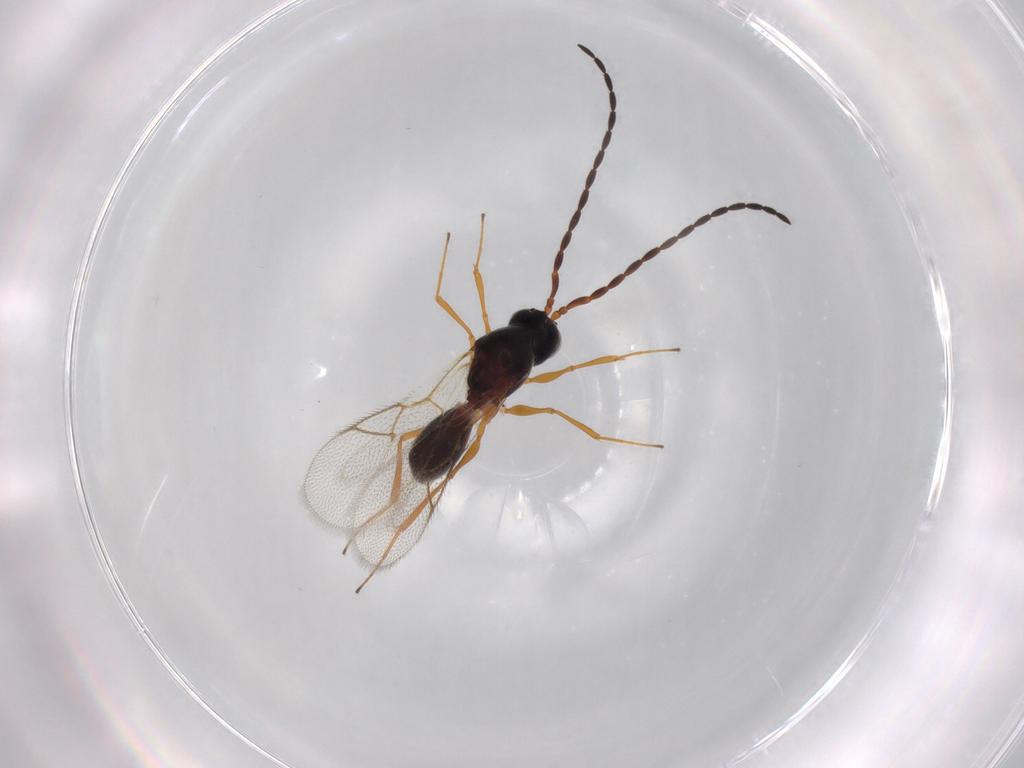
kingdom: Animalia
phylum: Arthropoda
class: Insecta
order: Hymenoptera
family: Figitidae
